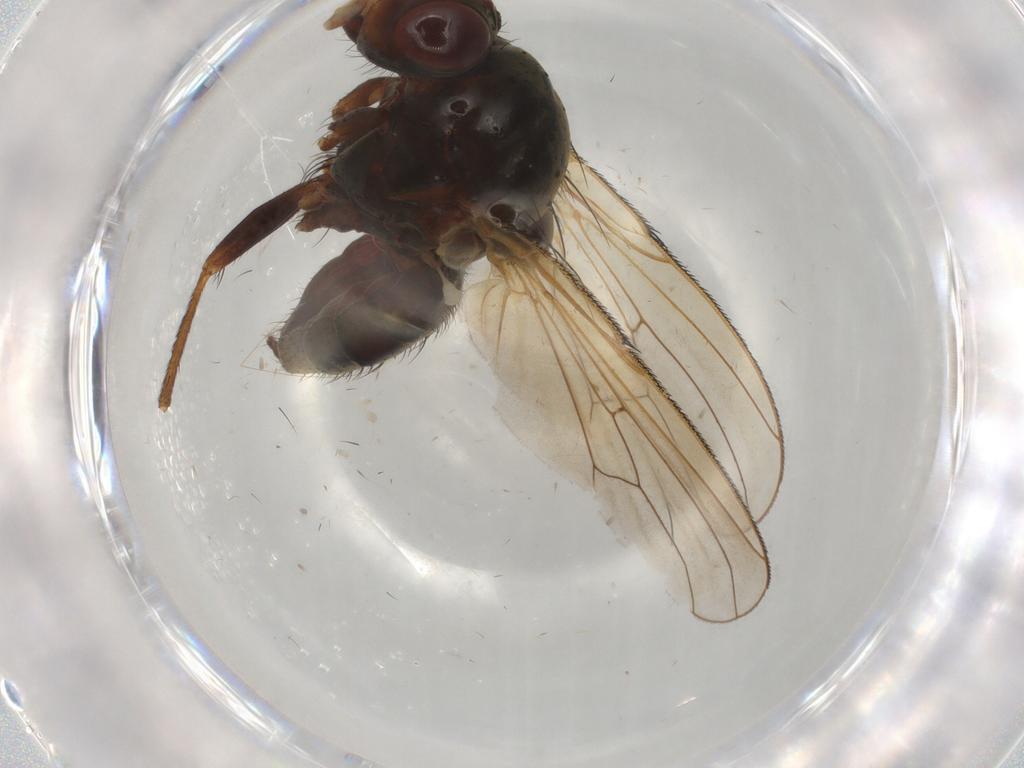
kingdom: Animalia
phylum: Arthropoda
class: Insecta
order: Diptera
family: Anthomyiidae
